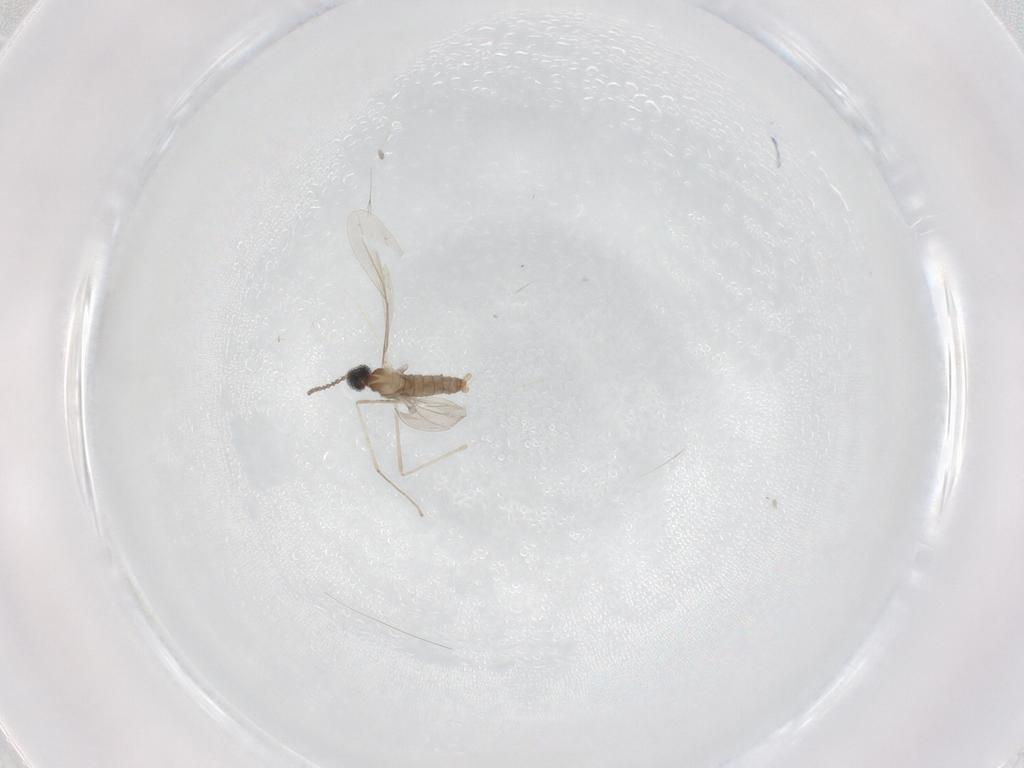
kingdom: Animalia
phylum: Arthropoda
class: Insecta
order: Diptera
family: Cecidomyiidae
